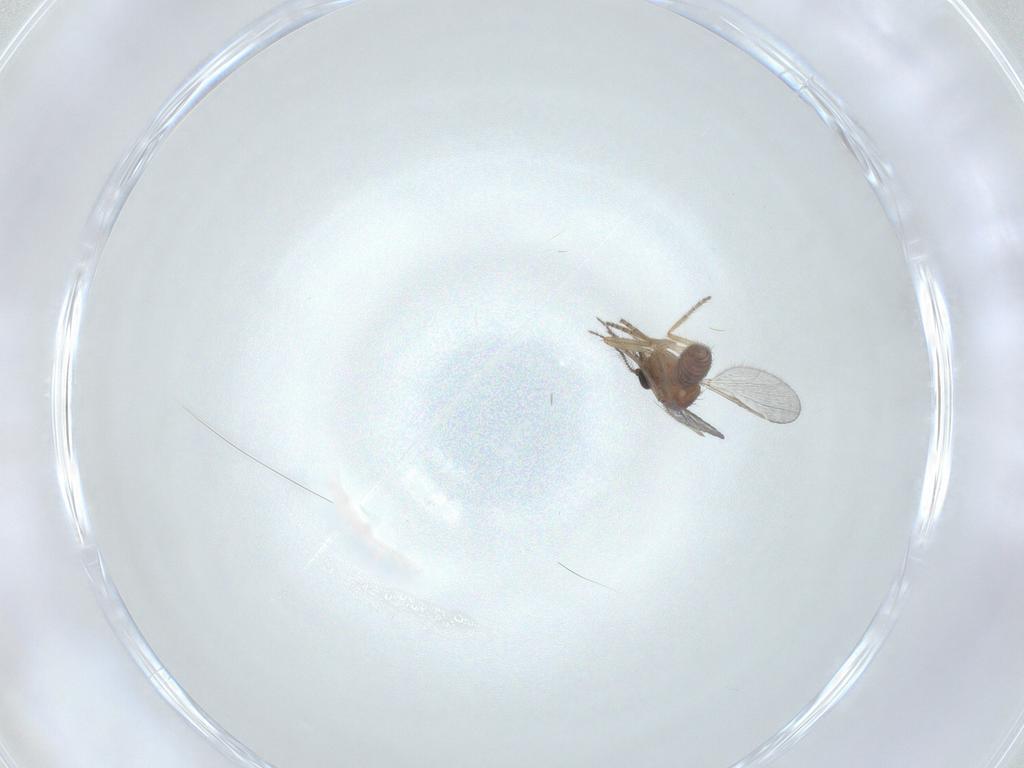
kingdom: Animalia
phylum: Arthropoda
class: Insecta
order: Diptera
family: Ceratopogonidae
